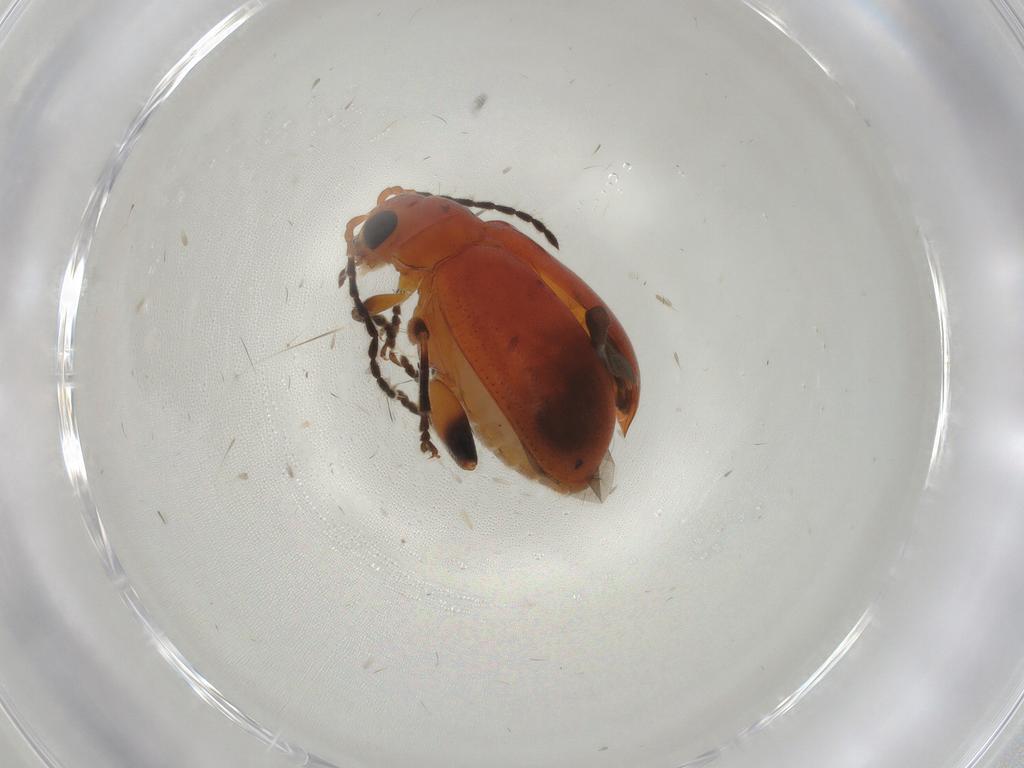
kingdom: Animalia
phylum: Arthropoda
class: Insecta
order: Coleoptera
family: Chrysomelidae
